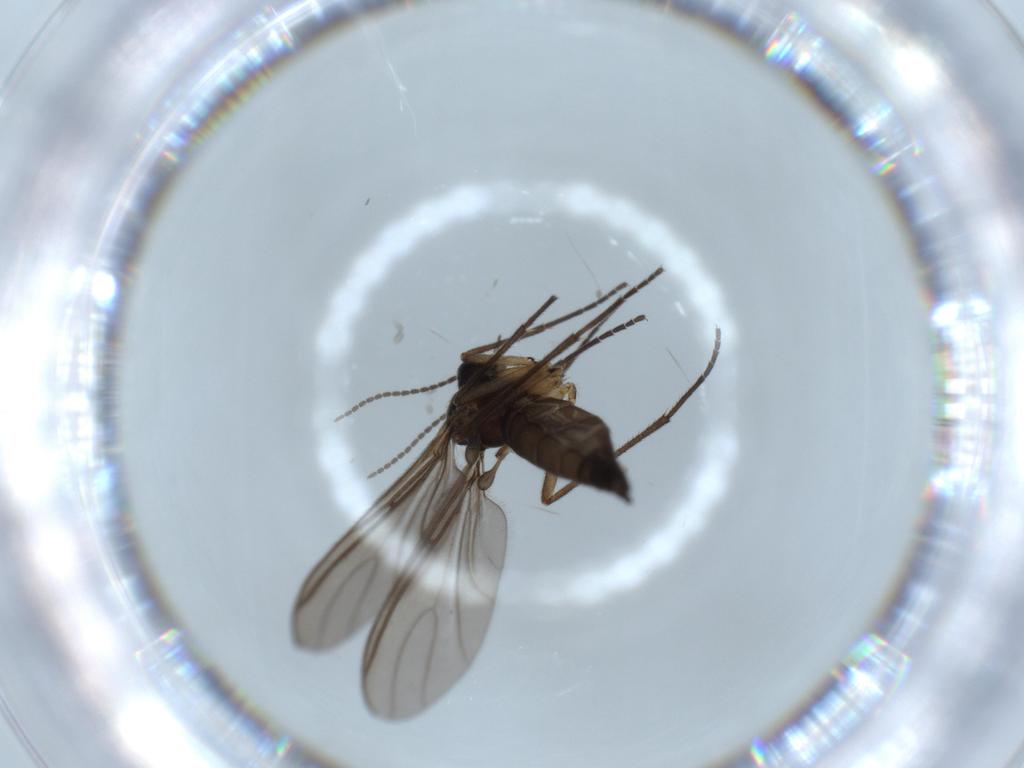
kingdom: Animalia
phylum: Arthropoda
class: Insecta
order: Diptera
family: Cecidomyiidae
